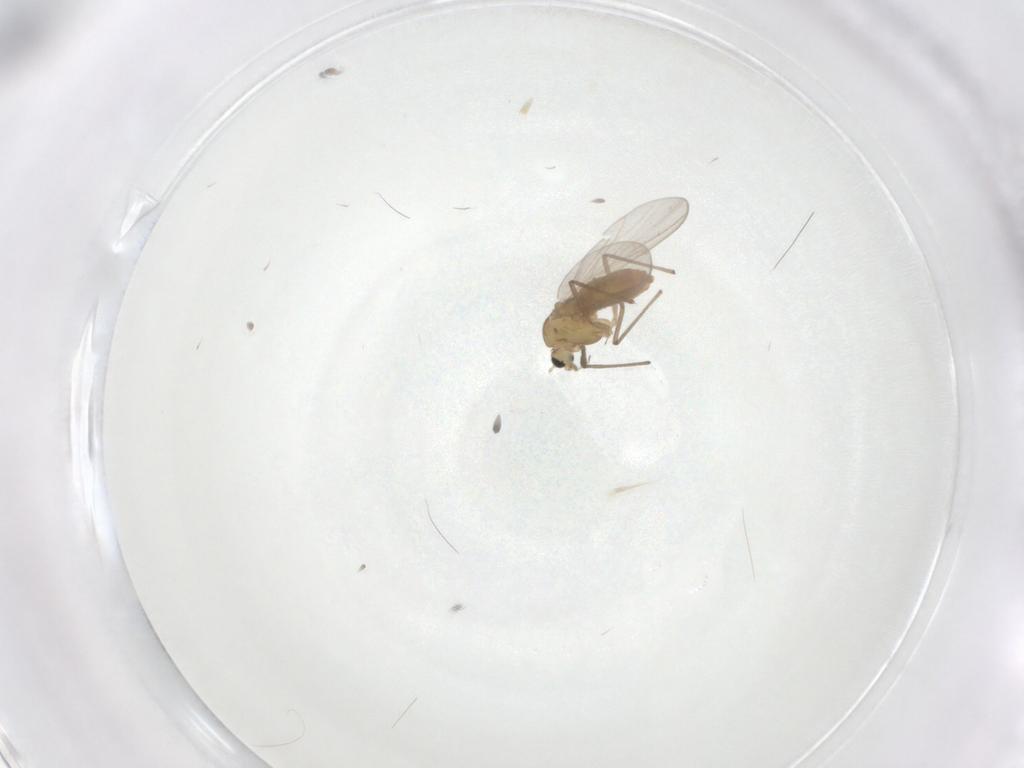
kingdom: Animalia
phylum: Arthropoda
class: Insecta
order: Diptera
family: Chironomidae
